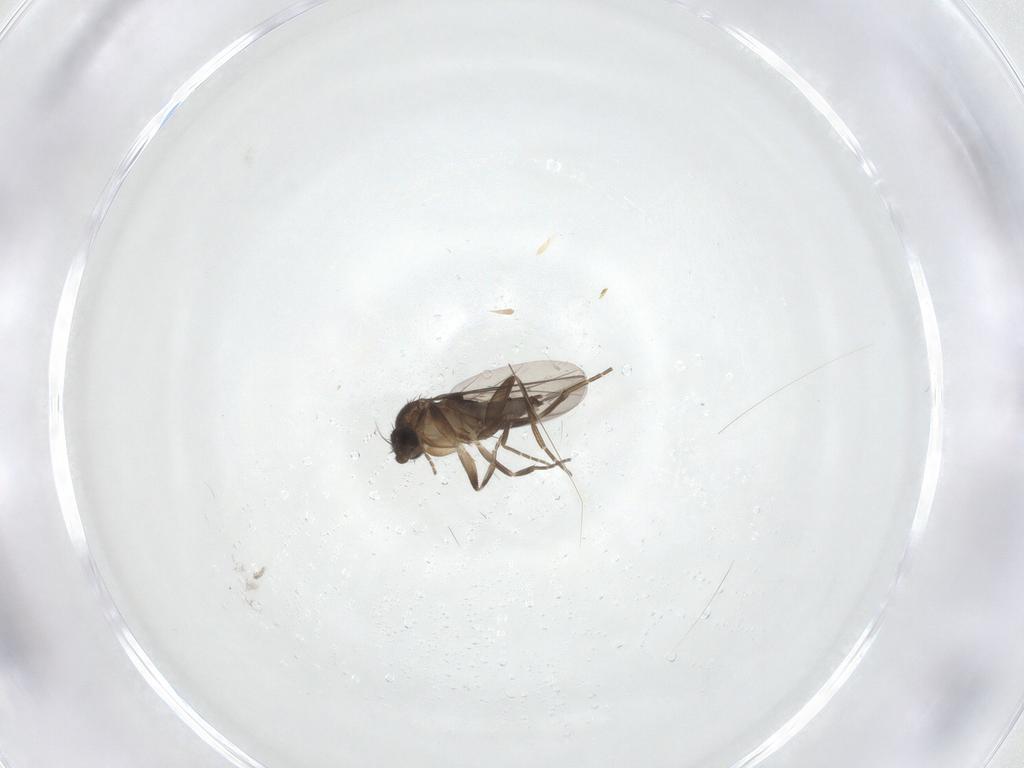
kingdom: Animalia
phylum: Arthropoda
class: Insecta
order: Diptera
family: Phoridae
